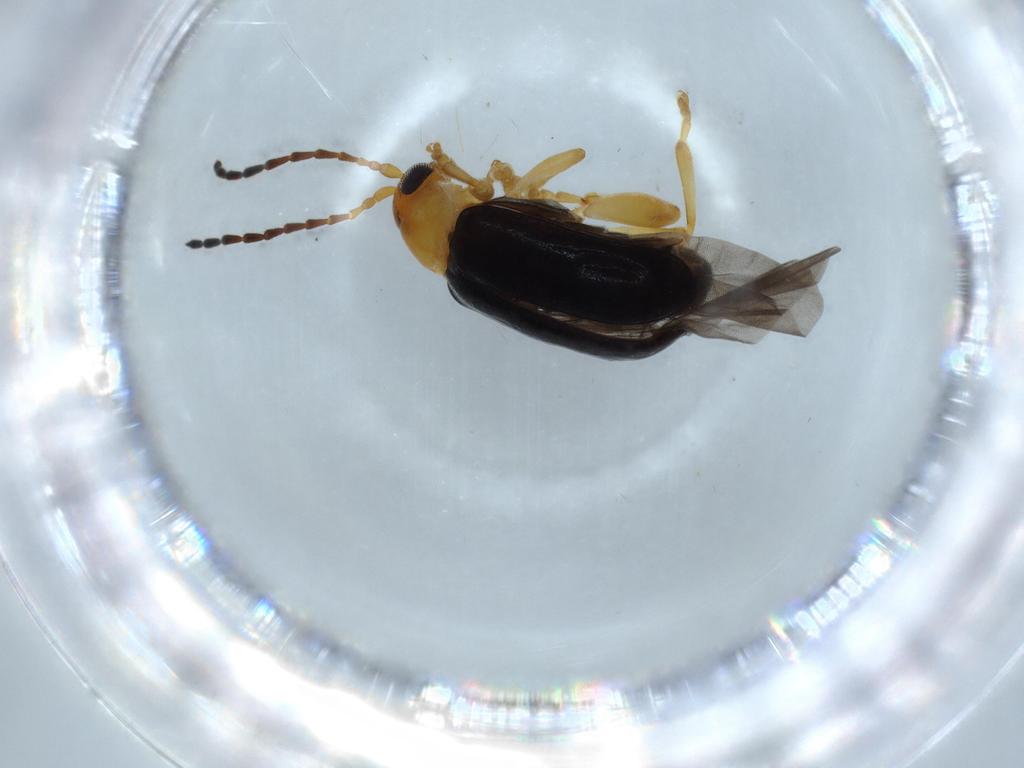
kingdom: Animalia
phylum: Arthropoda
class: Insecta
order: Coleoptera
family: Chrysomelidae
